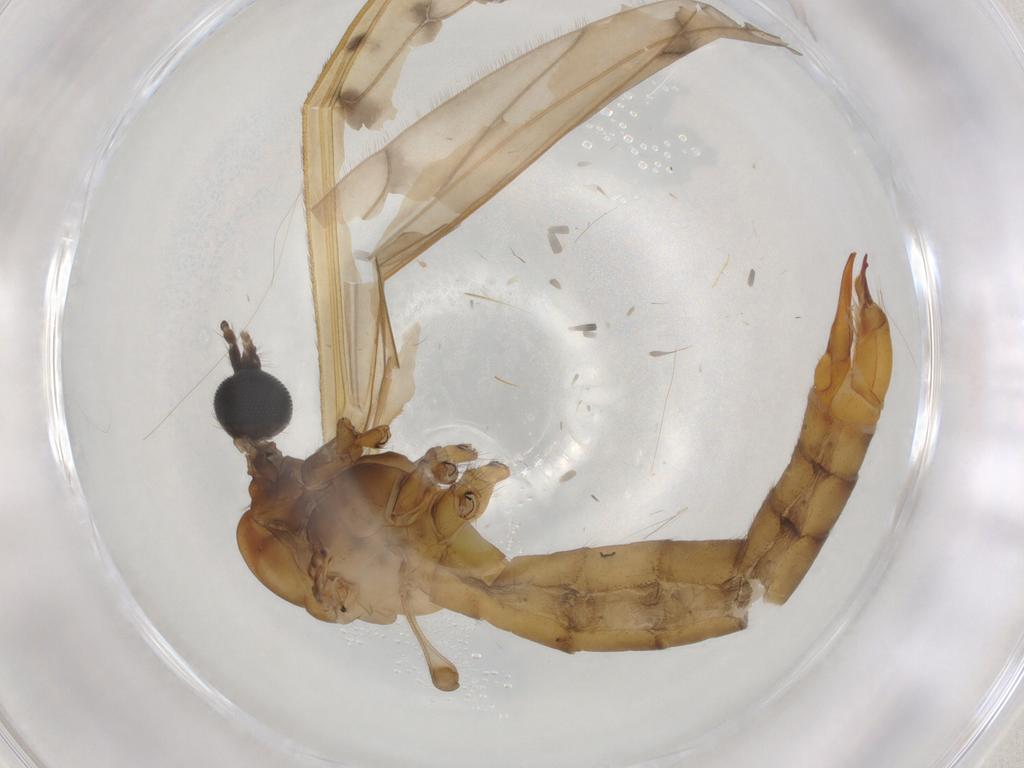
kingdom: Animalia
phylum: Arthropoda
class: Insecta
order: Diptera
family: Limoniidae
